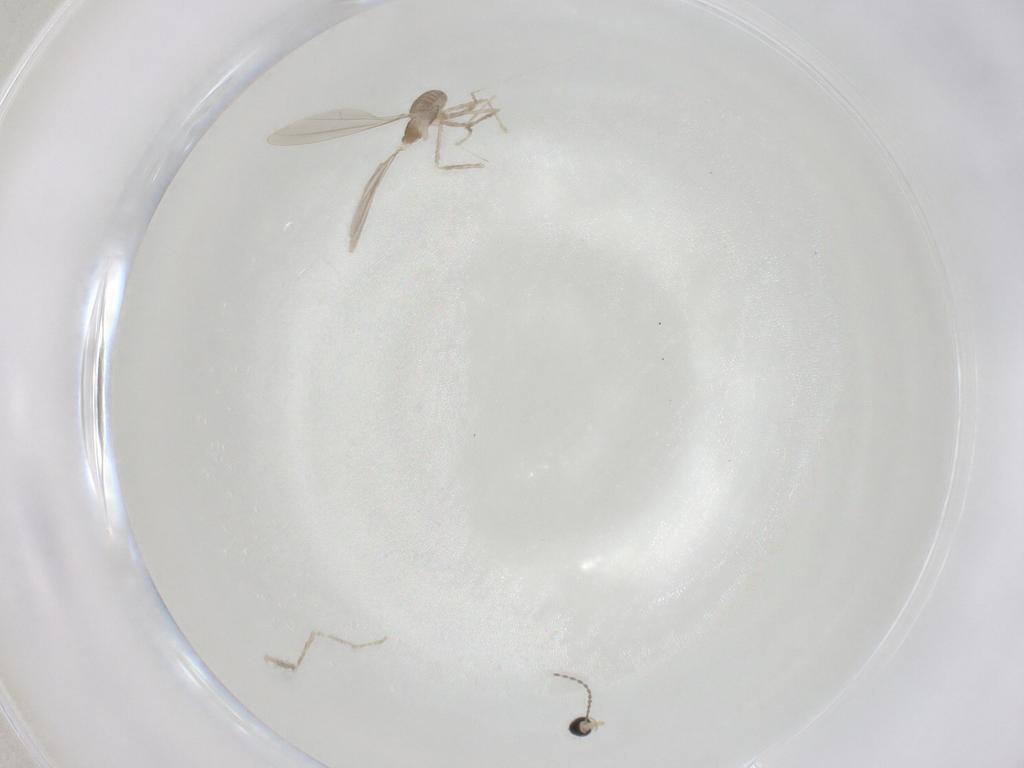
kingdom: Animalia
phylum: Arthropoda
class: Insecta
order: Diptera
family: Cecidomyiidae
